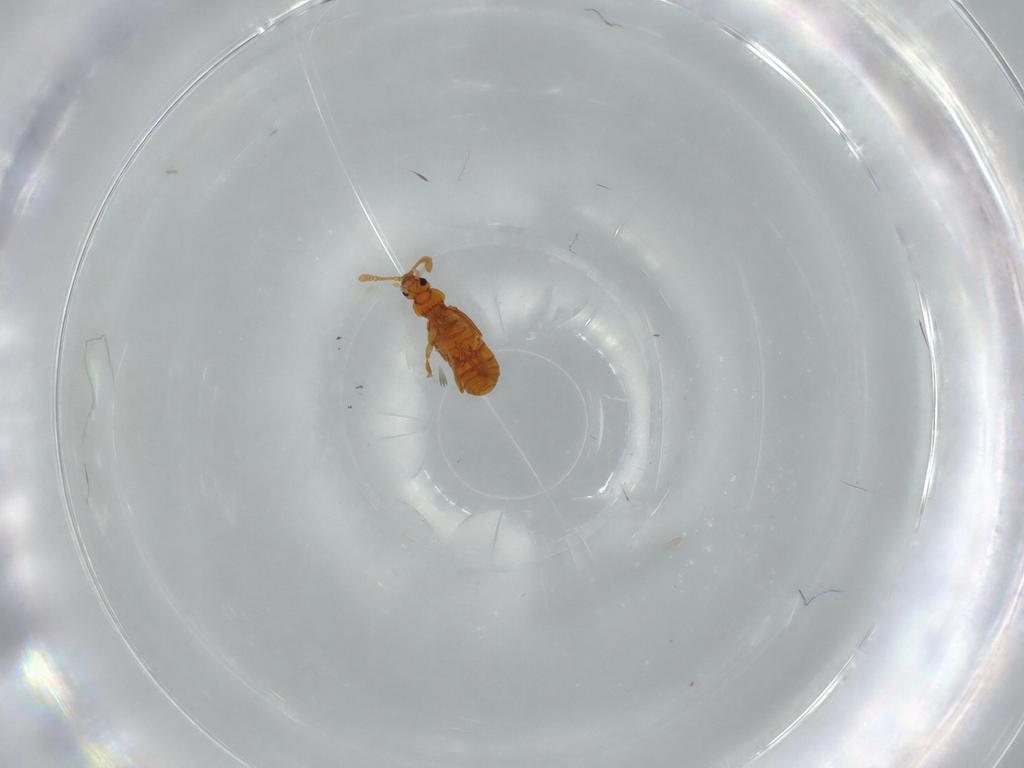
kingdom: Animalia
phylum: Arthropoda
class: Insecta
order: Coleoptera
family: Staphylinidae
